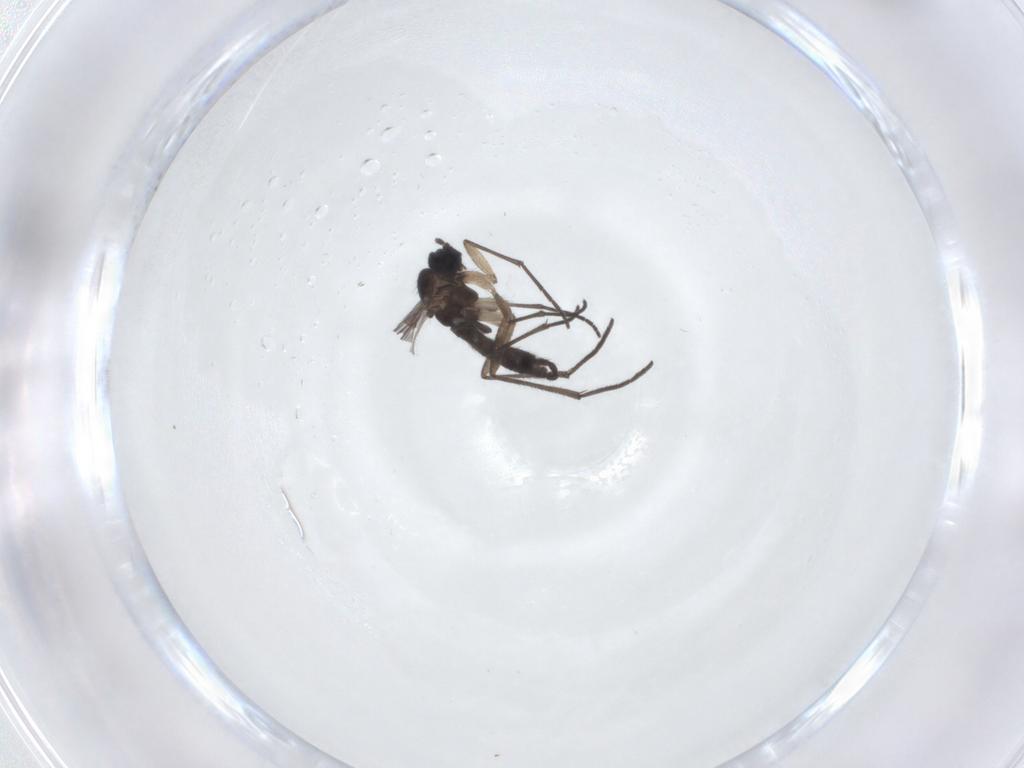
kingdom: Animalia
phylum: Arthropoda
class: Insecta
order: Diptera
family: Sciaridae
